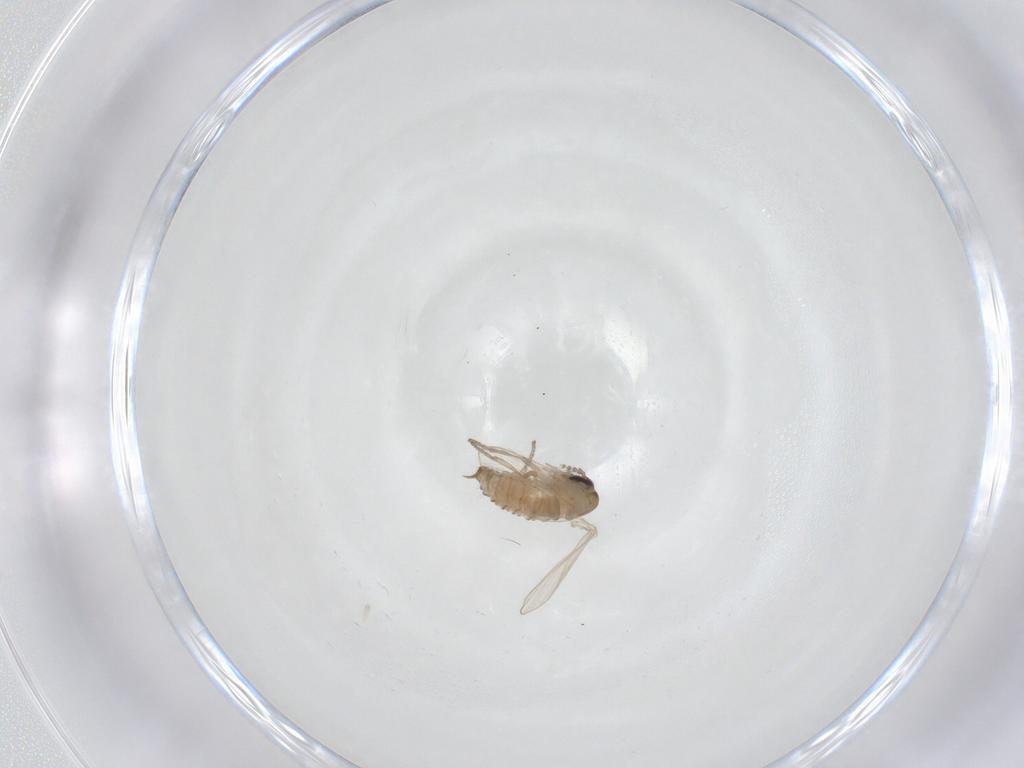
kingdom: Animalia
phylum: Arthropoda
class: Insecta
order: Diptera
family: Psychodidae
